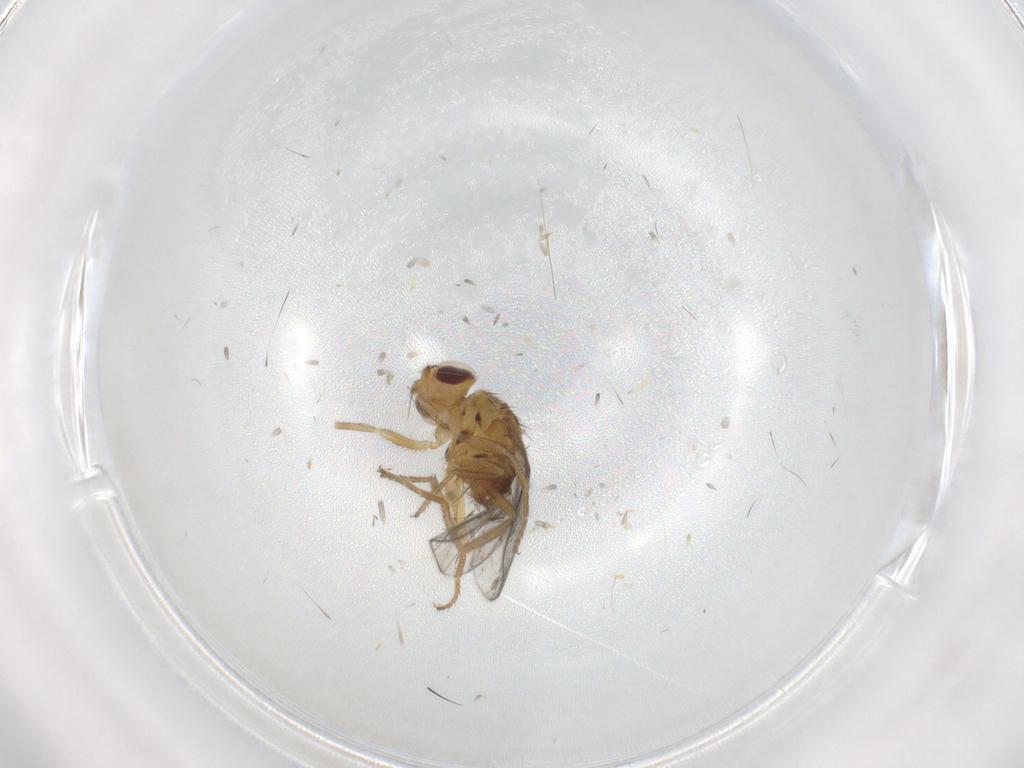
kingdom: Animalia
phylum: Arthropoda
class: Insecta
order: Diptera
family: Chloropidae
